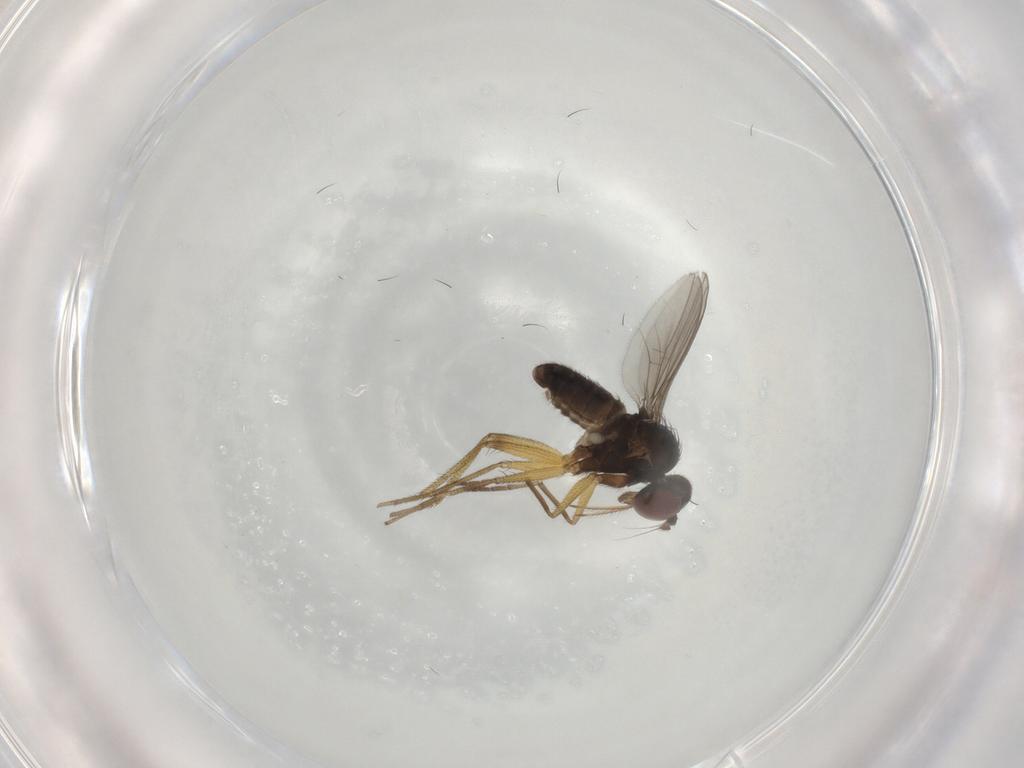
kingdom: Animalia
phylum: Arthropoda
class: Insecta
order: Diptera
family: Dolichopodidae
